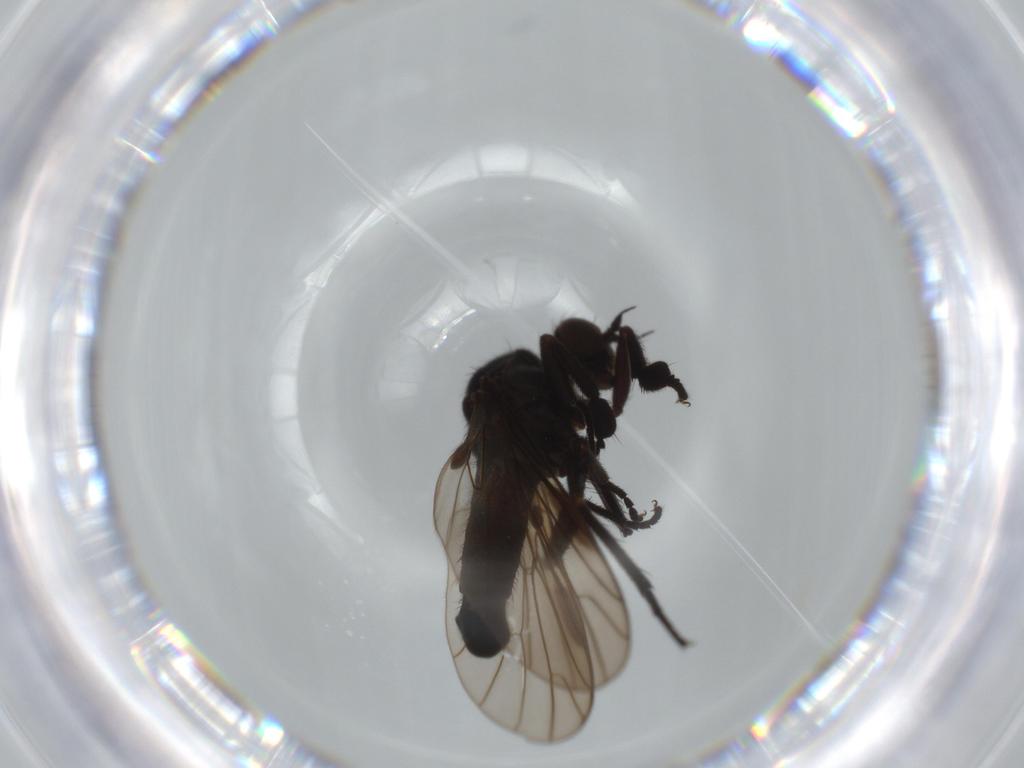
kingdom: Animalia
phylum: Arthropoda
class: Insecta
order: Diptera
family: Empididae
